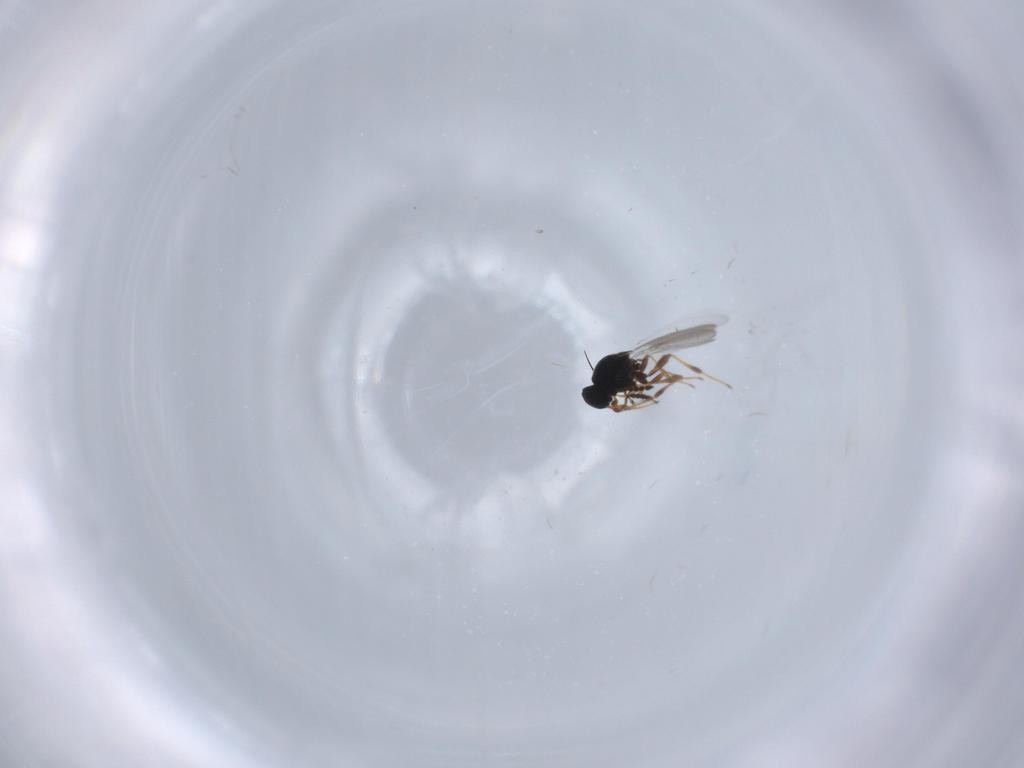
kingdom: Animalia
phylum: Arthropoda
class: Insecta
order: Hymenoptera
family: Platygastridae
